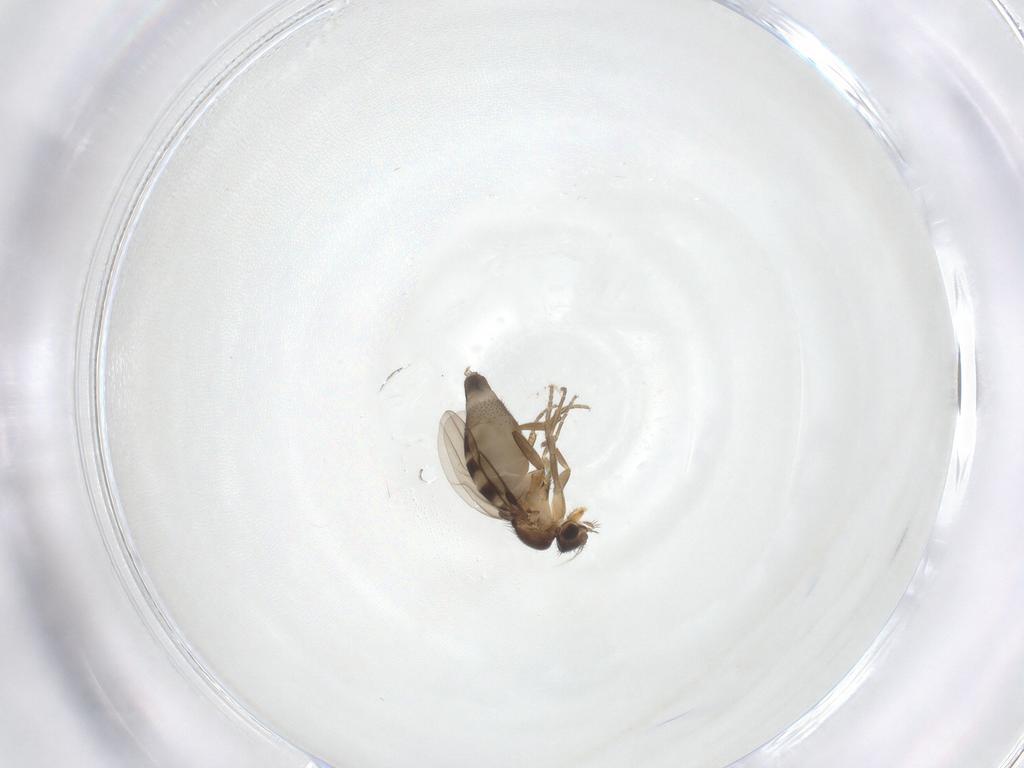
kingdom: Animalia
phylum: Arthropoda
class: Insecta
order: Diptera
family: Phoridae
